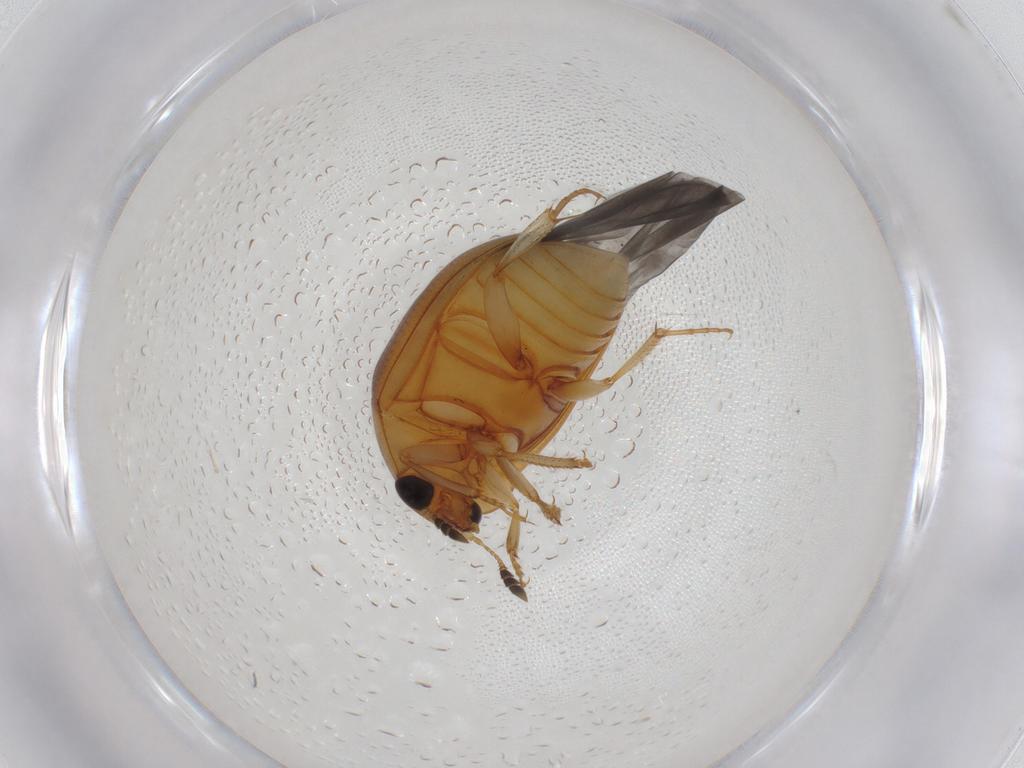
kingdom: Animalia
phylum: Arthropoda
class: Insecta
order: Coleoptera
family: Nitidulidae
